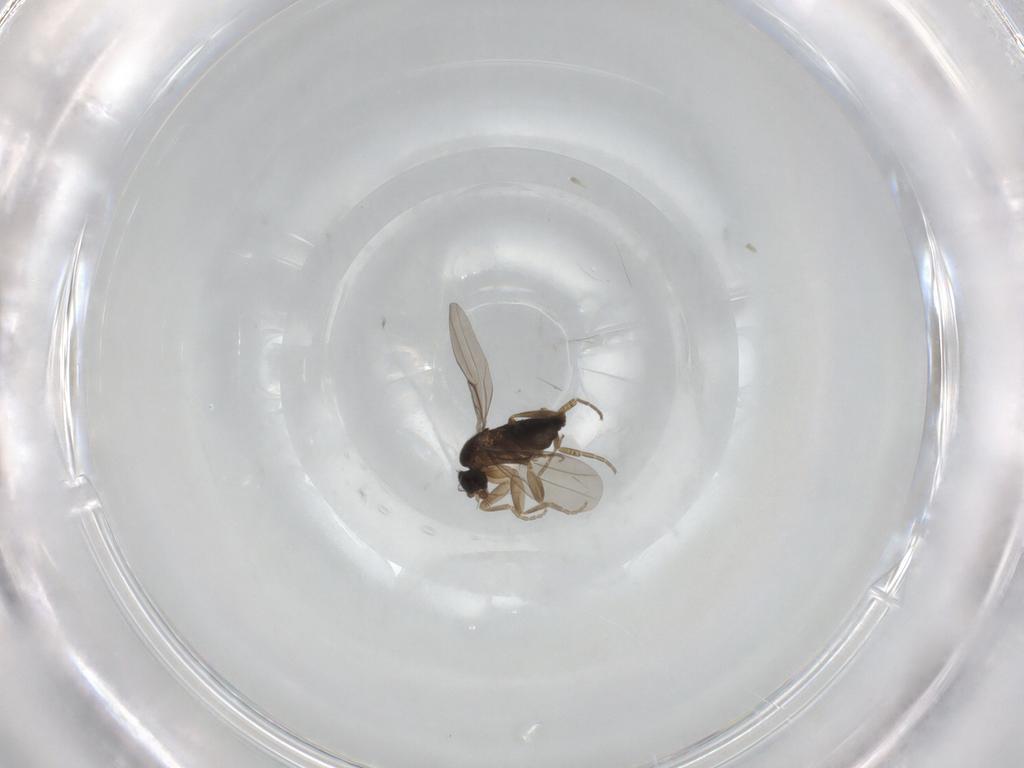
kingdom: Animalia
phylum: Arthropoda
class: Insecta
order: Diptera
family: Phoridae
